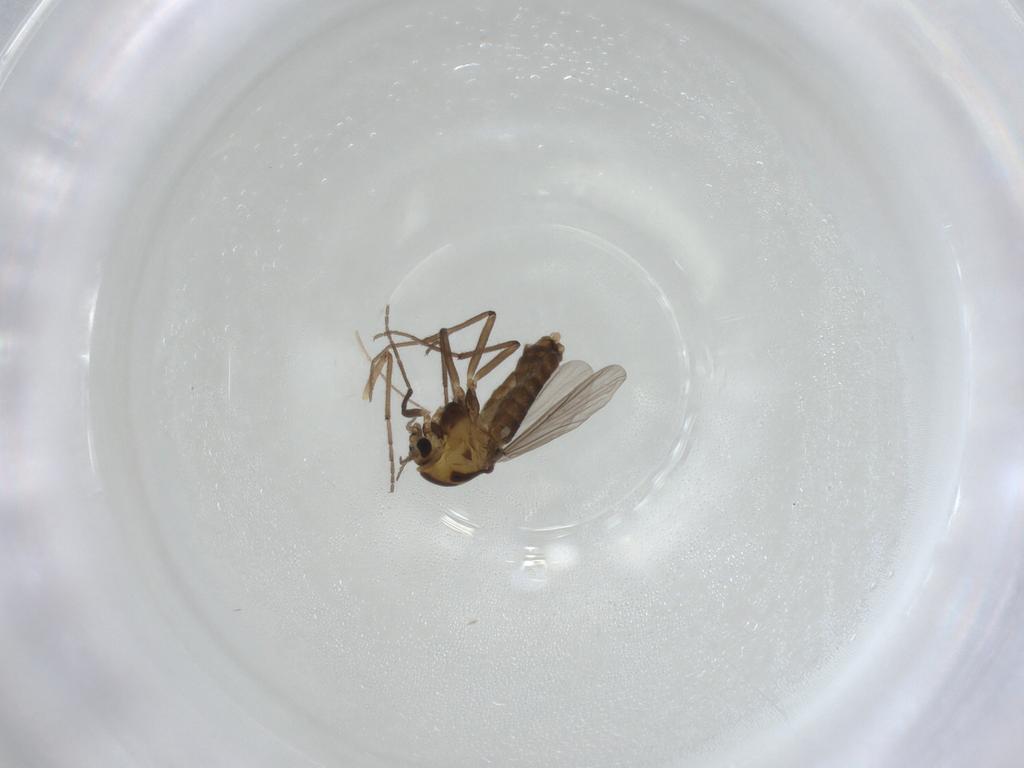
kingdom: Animalia
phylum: Arthropoda
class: Insecta
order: Diptera
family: Chironomidae
